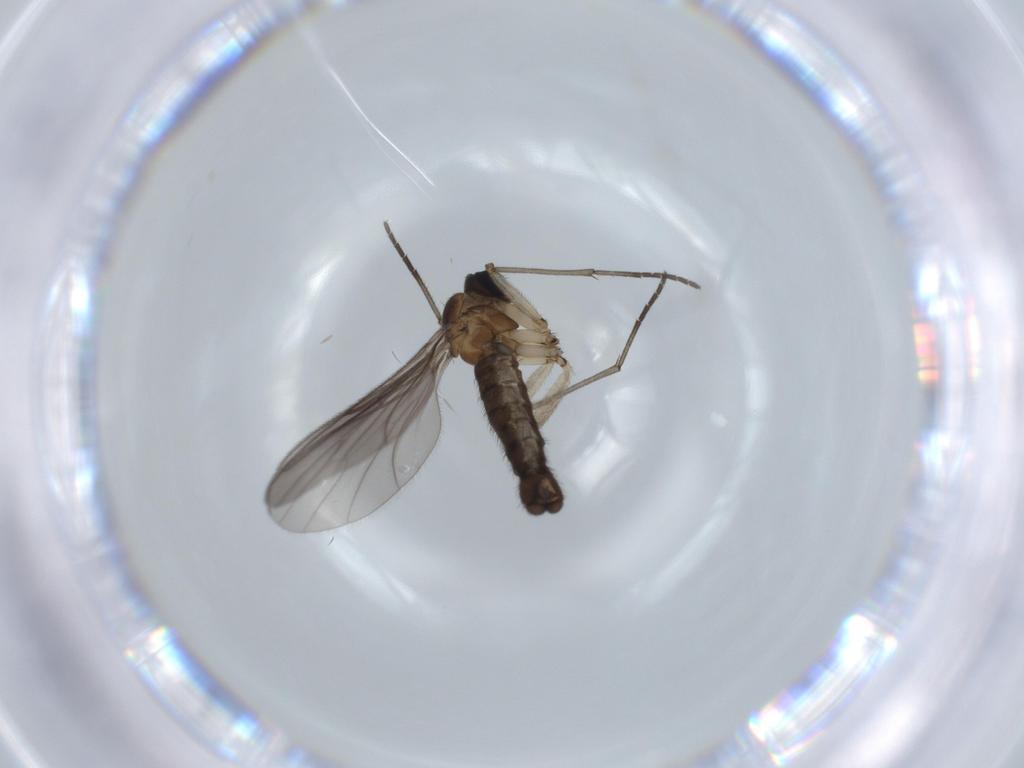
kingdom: Animalia
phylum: Arthropoda
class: Insecta
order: Diptera
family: Sciaridae
